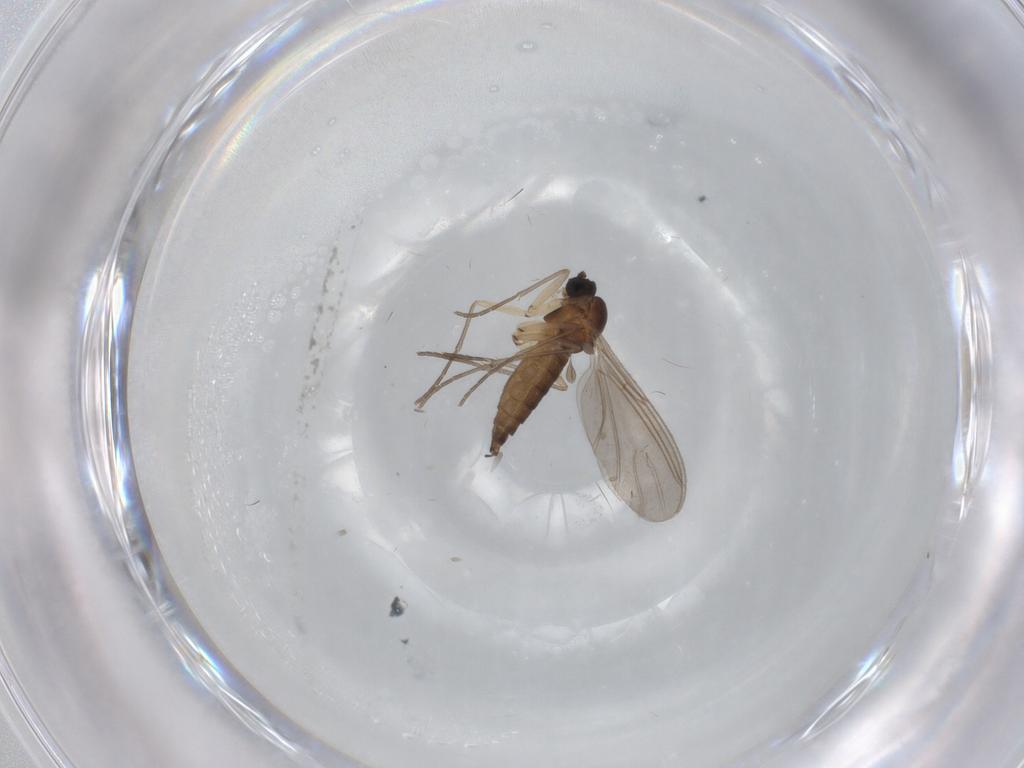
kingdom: Animalia
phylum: Arthropoda
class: Insecta
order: Diptera
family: Sciaridae
